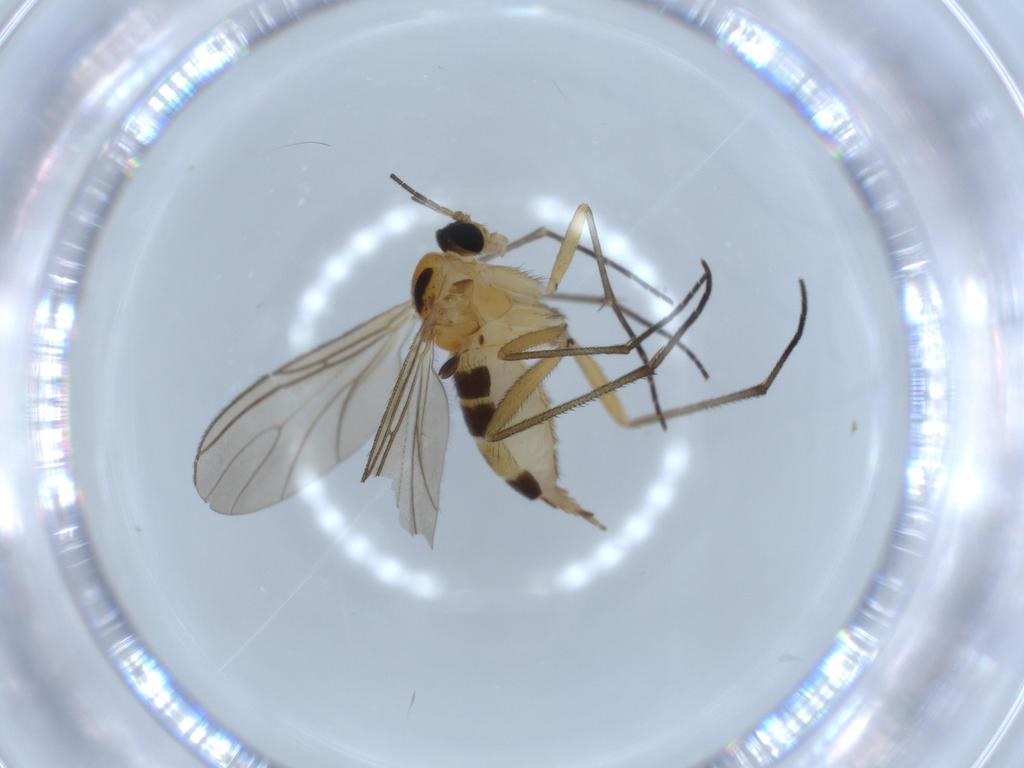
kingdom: Animalia
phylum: Arthropoda
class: Insecta
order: Diptera
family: Sciaridae
